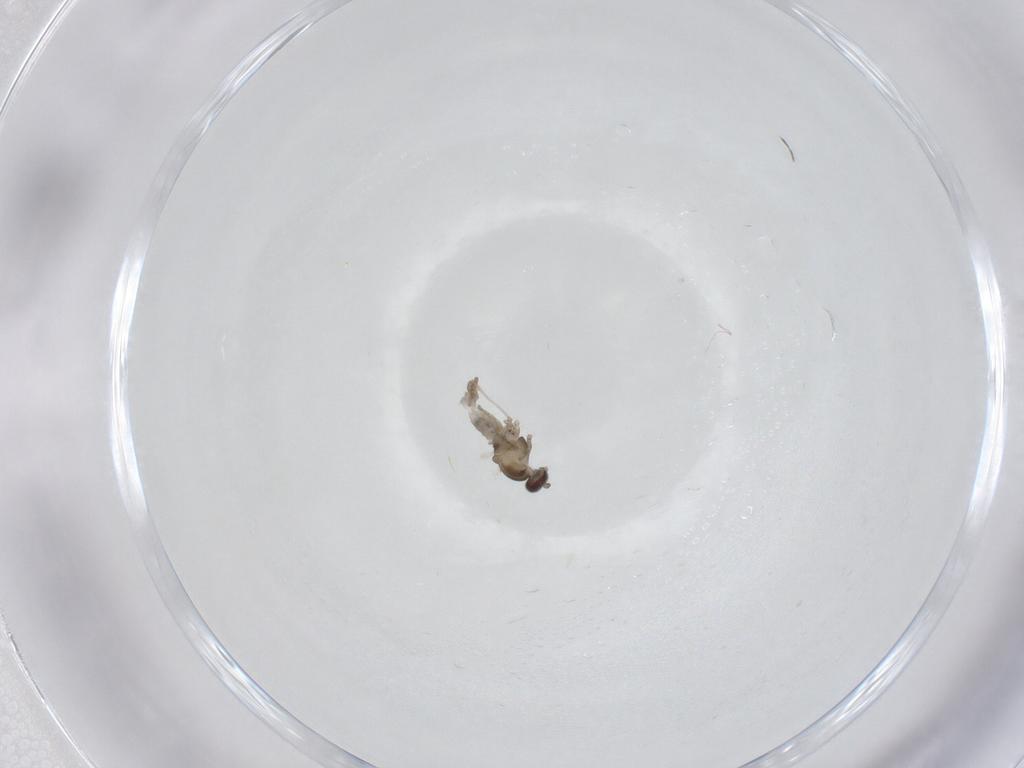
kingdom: Animalia
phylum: Arthropoda
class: Insecta
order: Diptera
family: Cecidomyiidae
